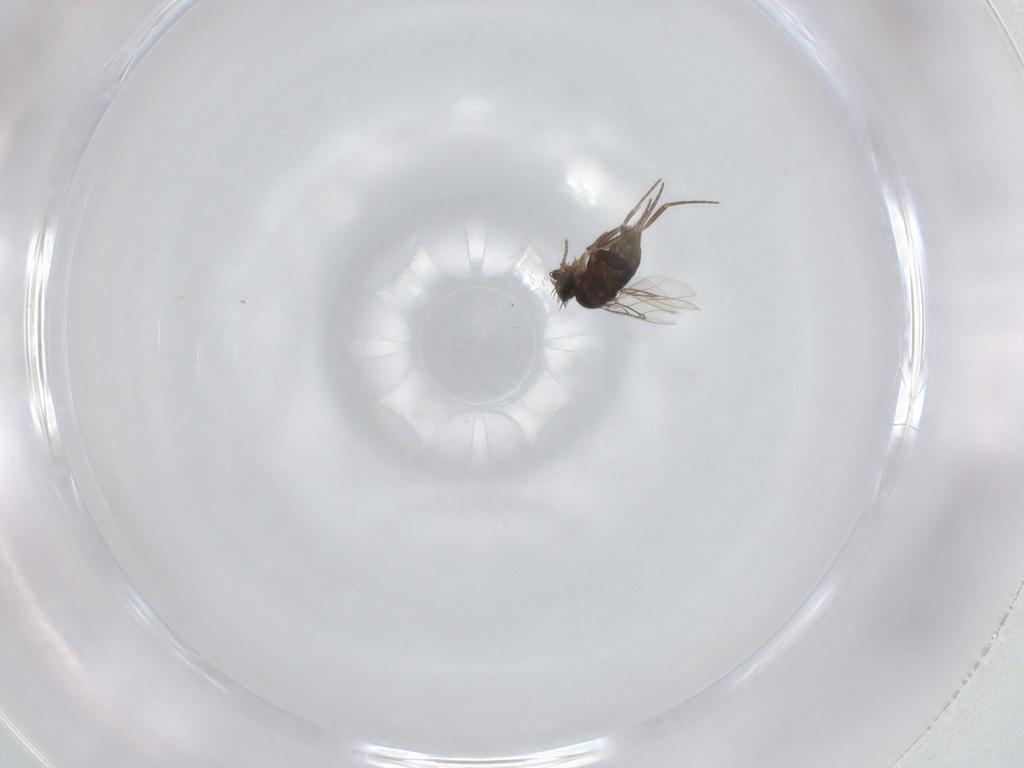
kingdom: Animalia
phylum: Arthropoda
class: Insecta
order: Diptera
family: Phoridae
